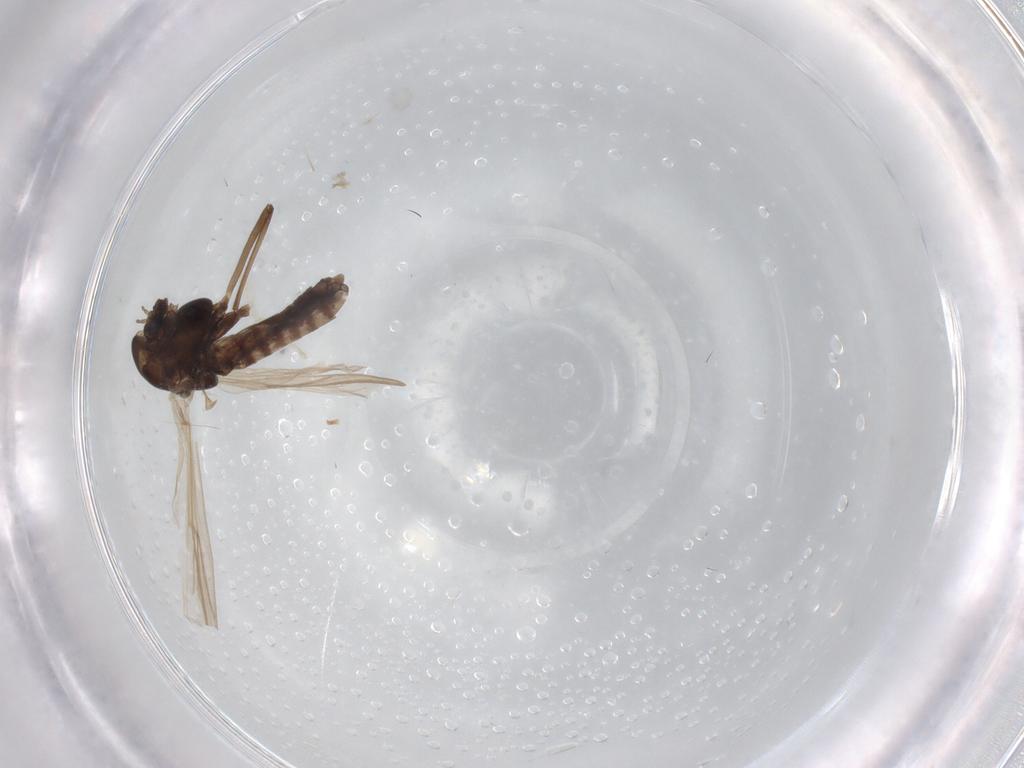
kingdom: Animalia
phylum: Arthropoda
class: Insecta
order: Diptera
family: Chironomidae
